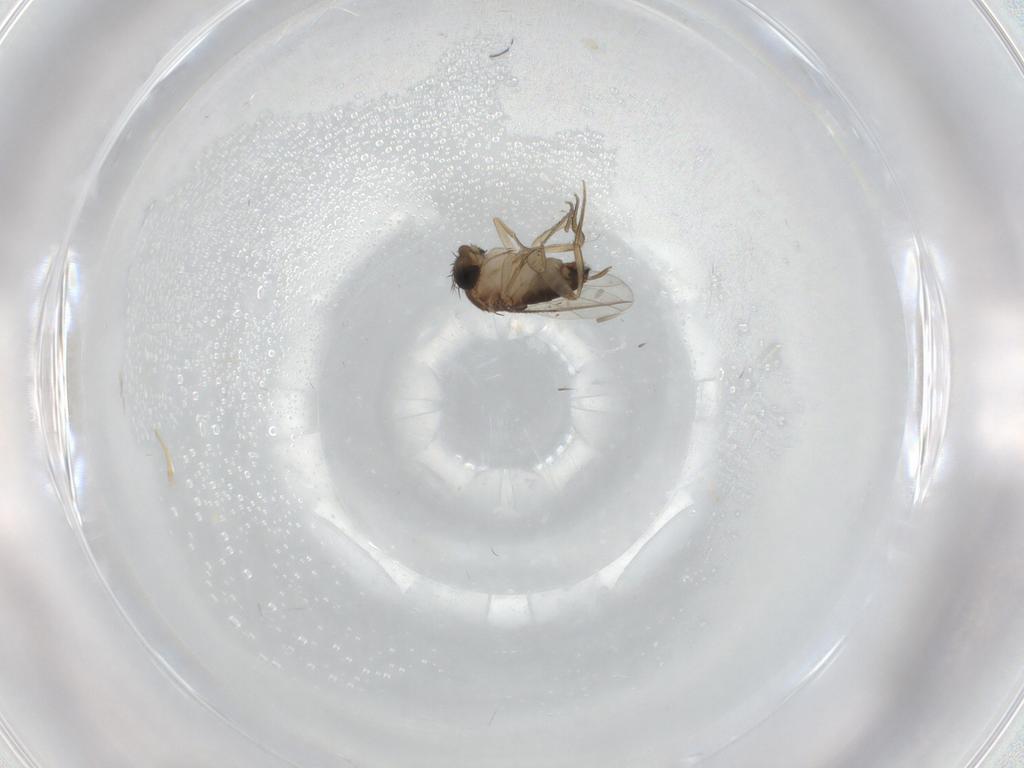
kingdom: Animalia
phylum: Arthropoda
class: Insecta
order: Diptera
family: Phoridae
